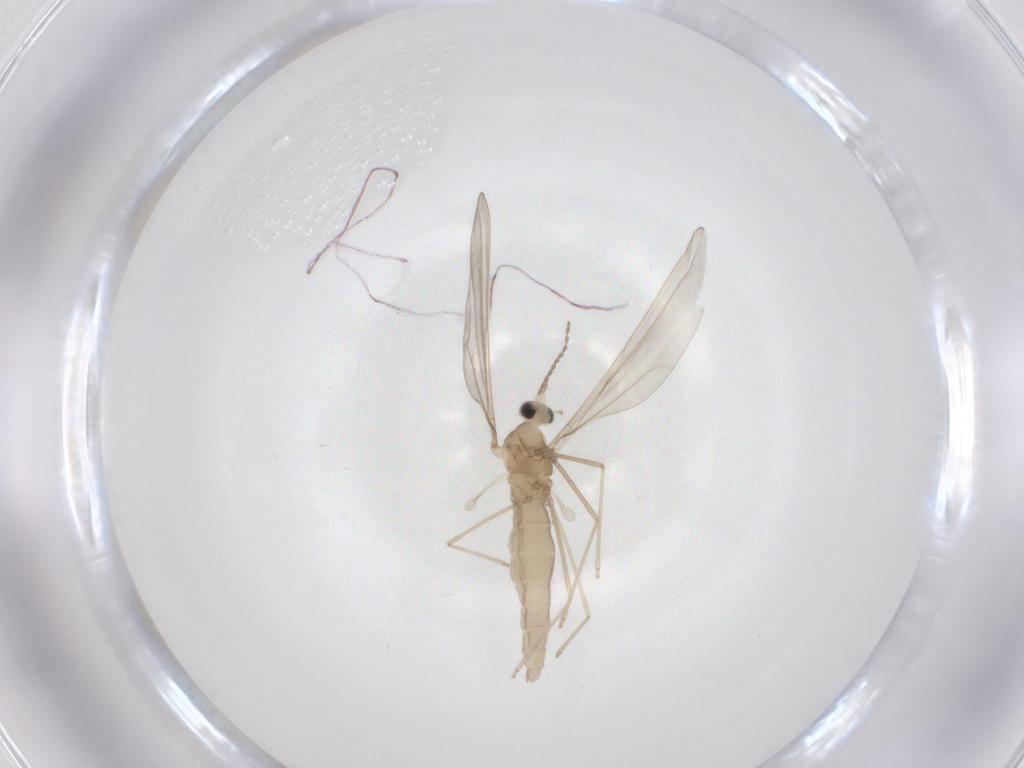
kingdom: Animalia
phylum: Arthropoda
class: Insecta
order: Diptera
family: Cecidomyiidae
